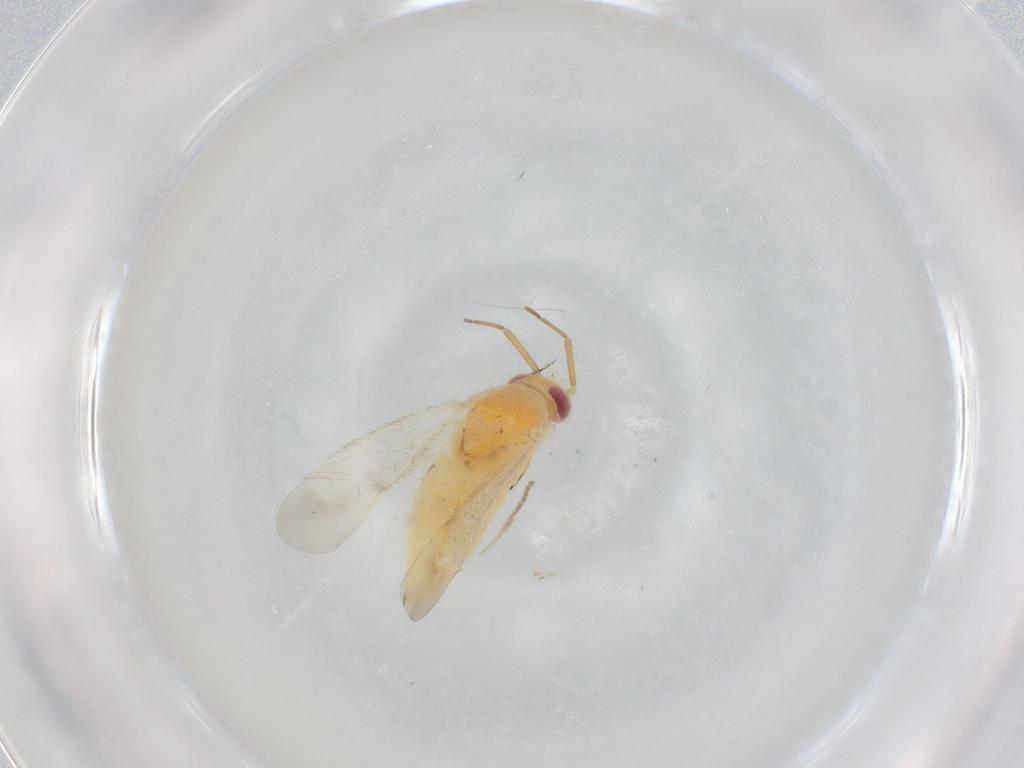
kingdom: Animalia
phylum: Arthropoda
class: Insecta
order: Hemiptera
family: Miridae
